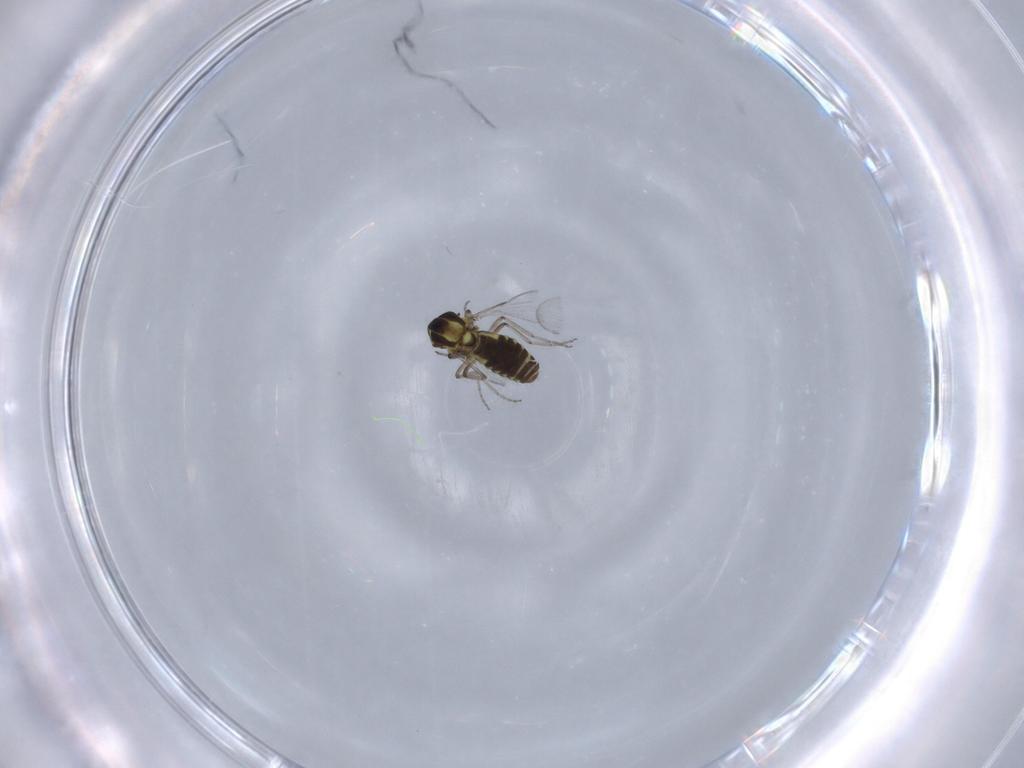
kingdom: Animalia
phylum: Arthropoda
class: Insecta
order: Diptera
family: Ceratopogonidae
